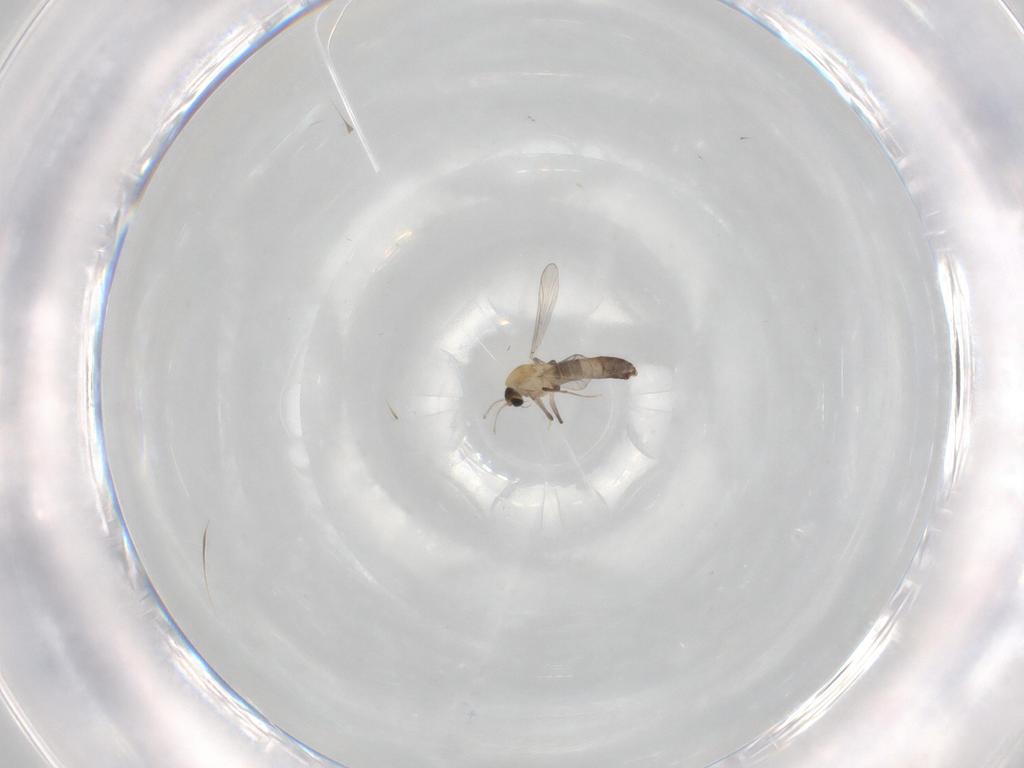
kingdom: Animalia
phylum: Arthropoda
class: Insecta
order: Diptera
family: Chironomidae
